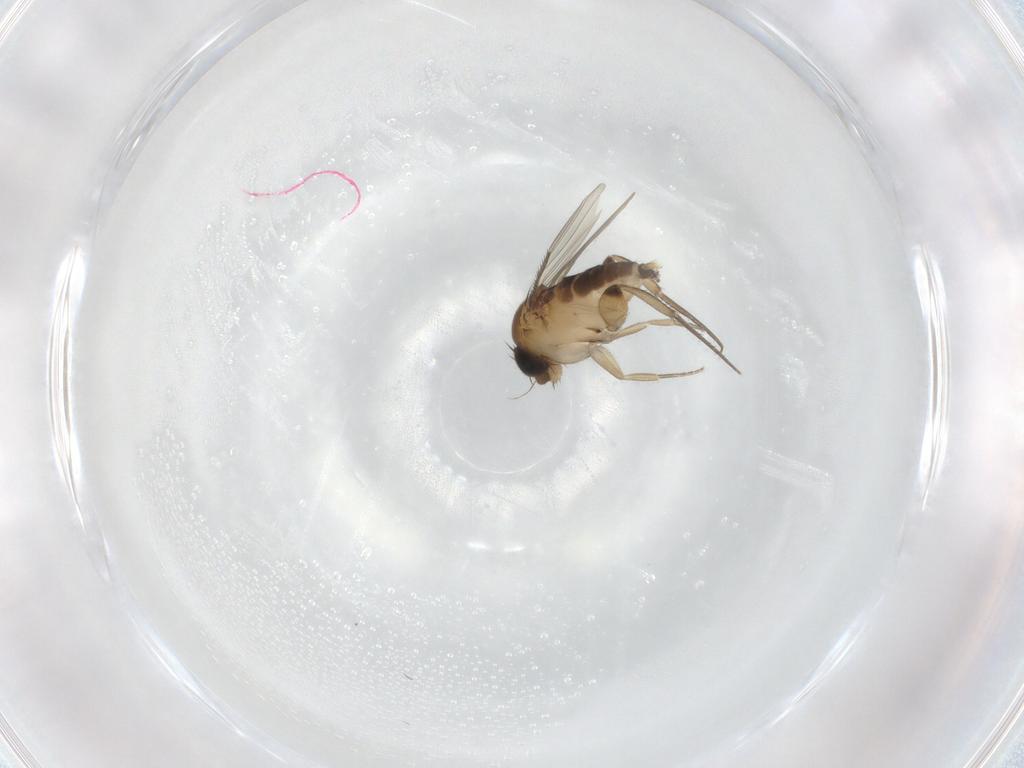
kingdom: Animalia
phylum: Arthropoda
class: Insecta
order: Diptera
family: Phoridae
